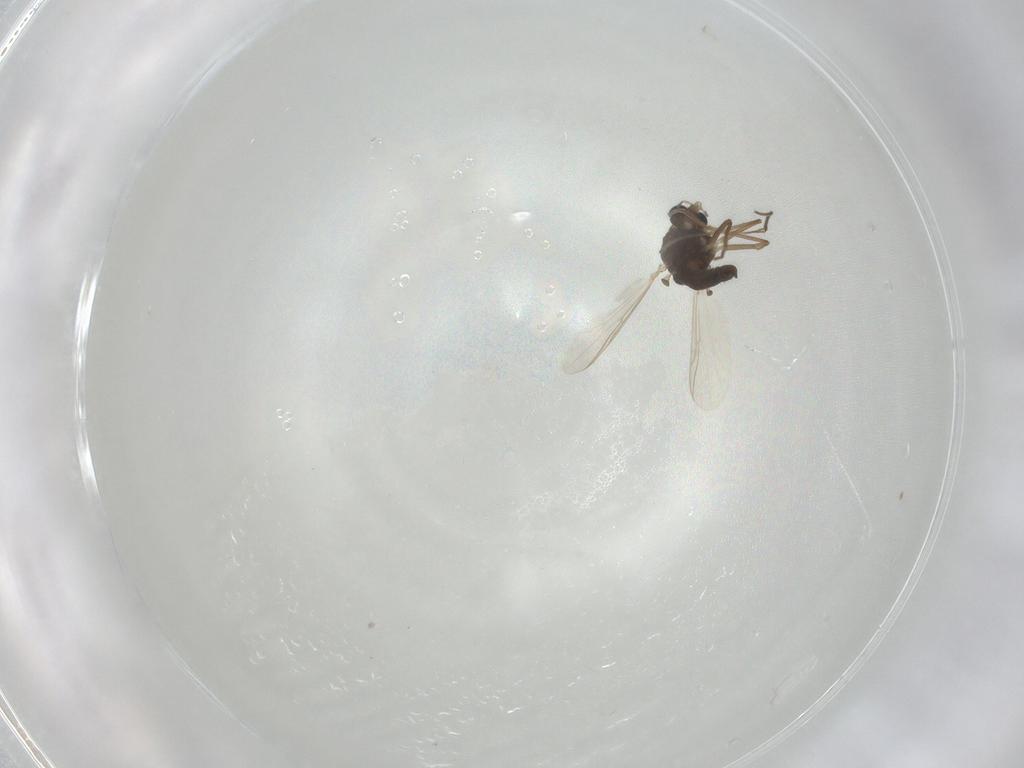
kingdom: Animalia
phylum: Arthropoda
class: Insecta
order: Diptera
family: Chironomidae
